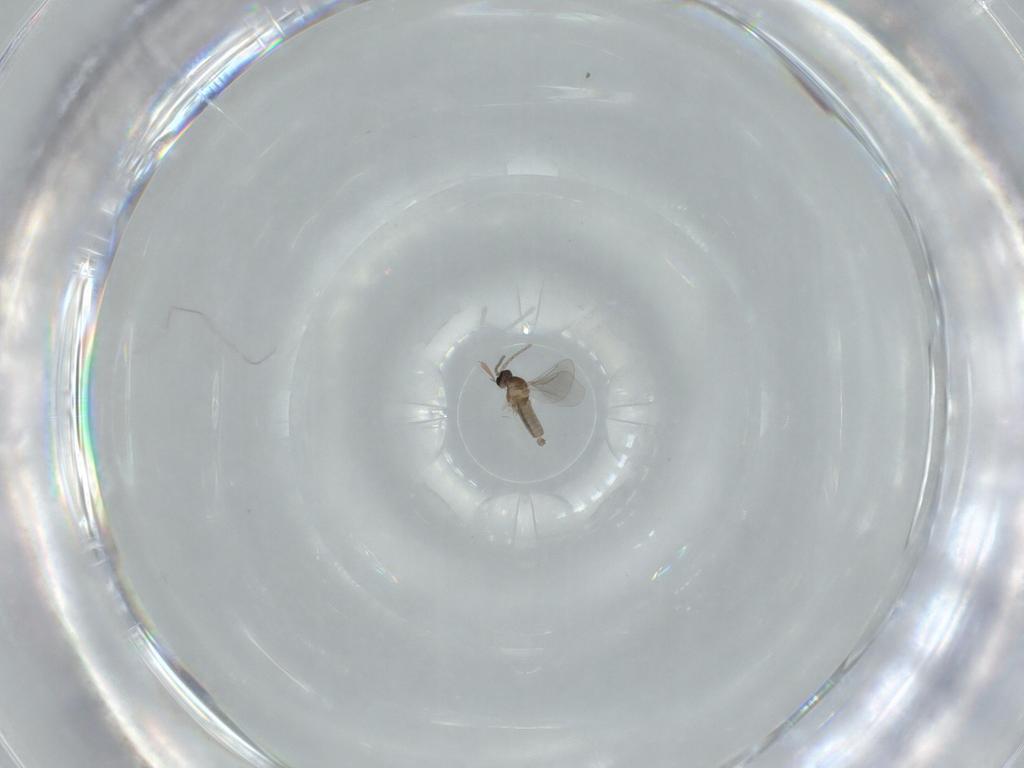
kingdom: Animalia
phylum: Arthropoda
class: Insecta
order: Diptera
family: Cecidomyiidae
